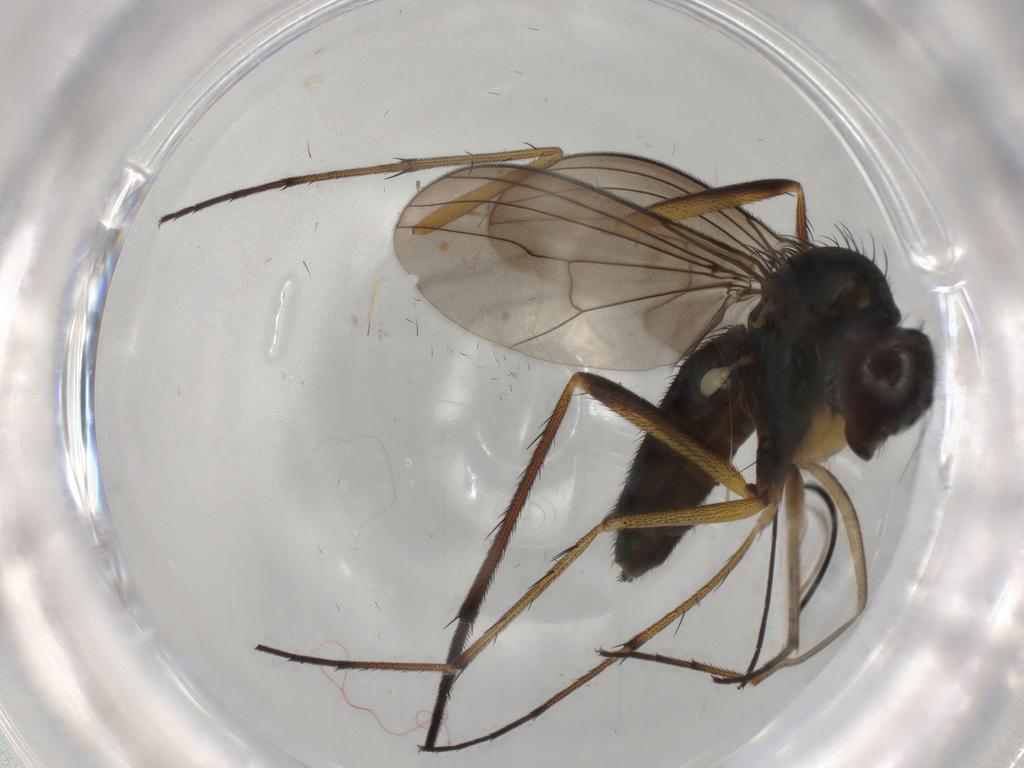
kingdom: Animalia
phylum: Arthropoda
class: Insecta
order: Diptera
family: Dolichopodidae
